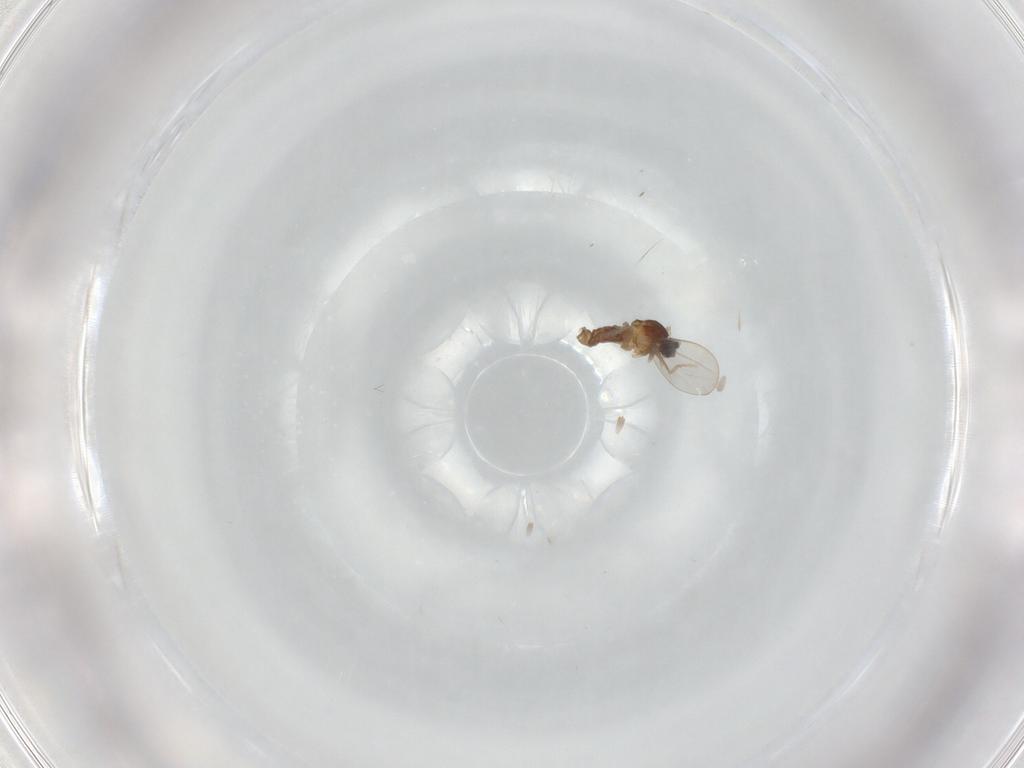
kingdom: Animalia
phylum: Arthropoda
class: Insecta
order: Diptera
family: Cecidomyiidae
